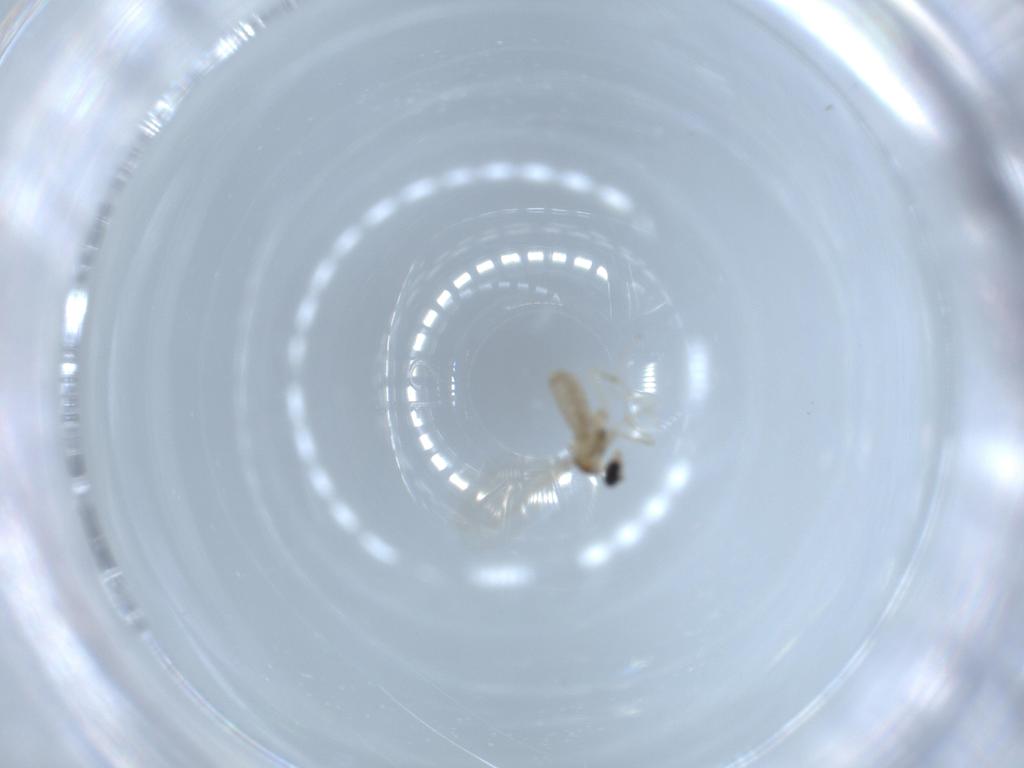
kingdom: Animalia
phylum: Arthropoda
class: Insecta
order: Diptera
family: Cecidomyiidae
